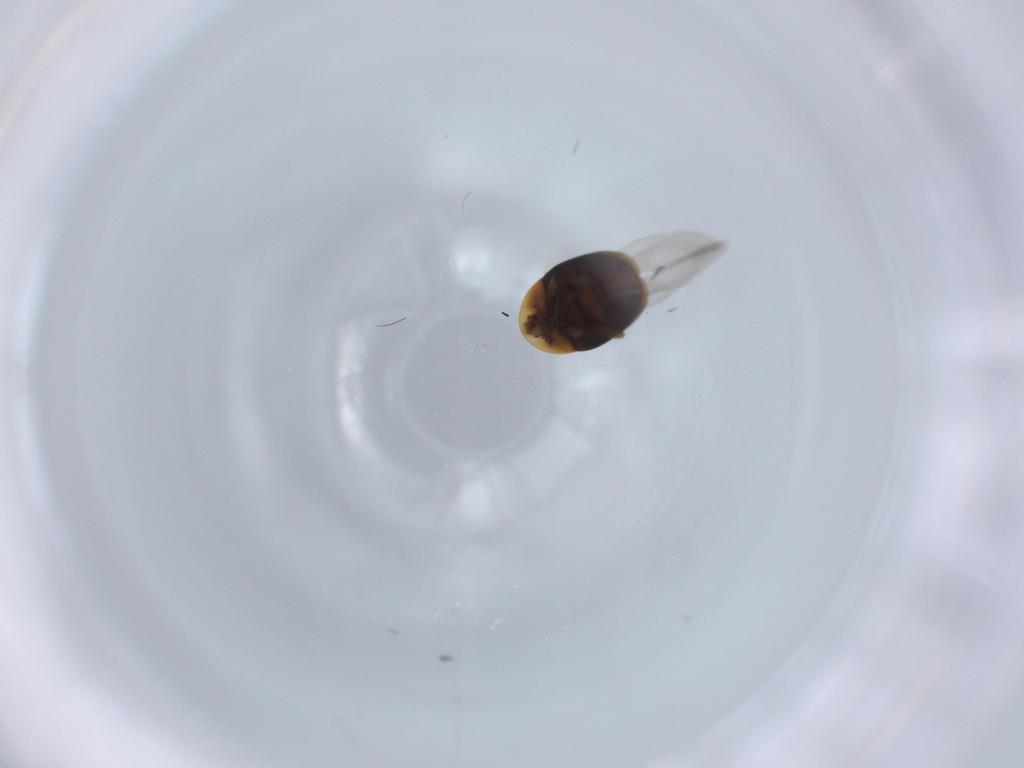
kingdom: Animalia
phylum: Arthropoda
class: Insecta
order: Coleoptera
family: Corylophidae
